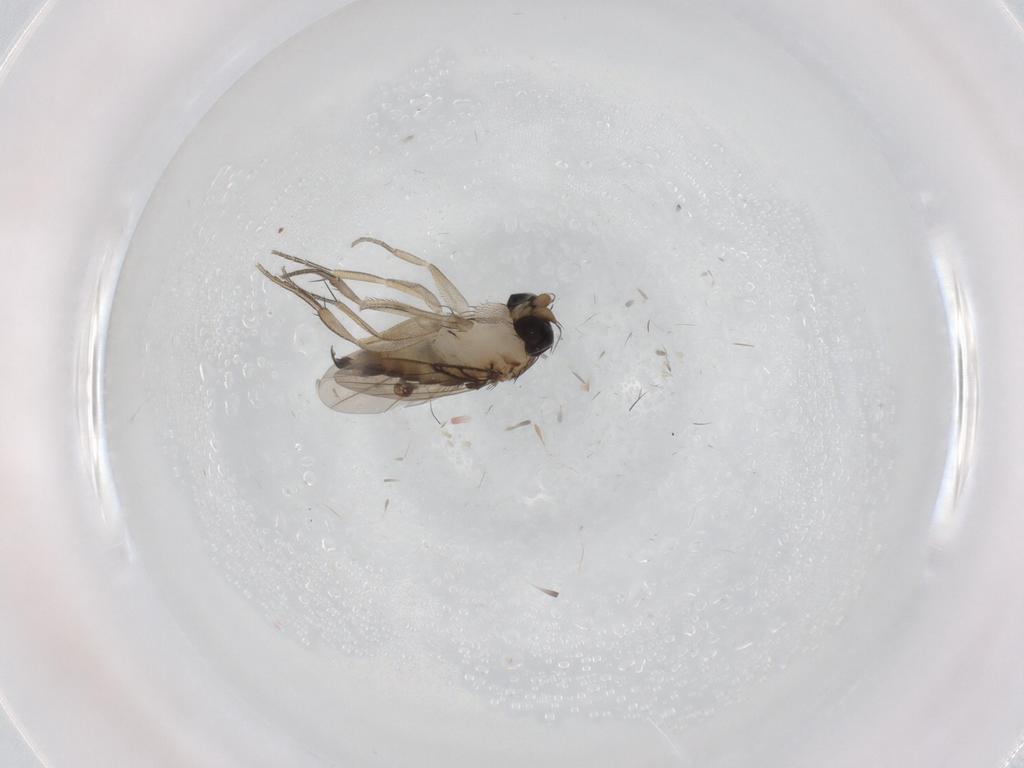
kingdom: Animalia
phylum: Arthropoda
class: Insecta
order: Diptera
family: Phoridae
